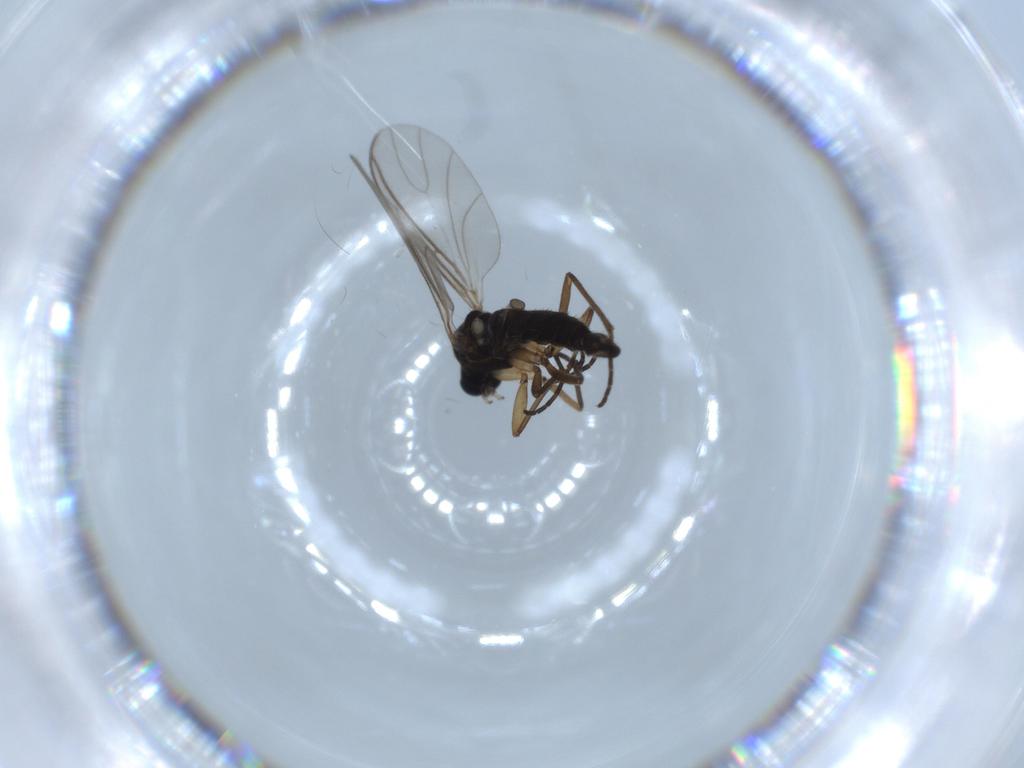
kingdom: Animalia
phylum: Arthropoda
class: Insecta
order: Diptera
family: Sciaridae
